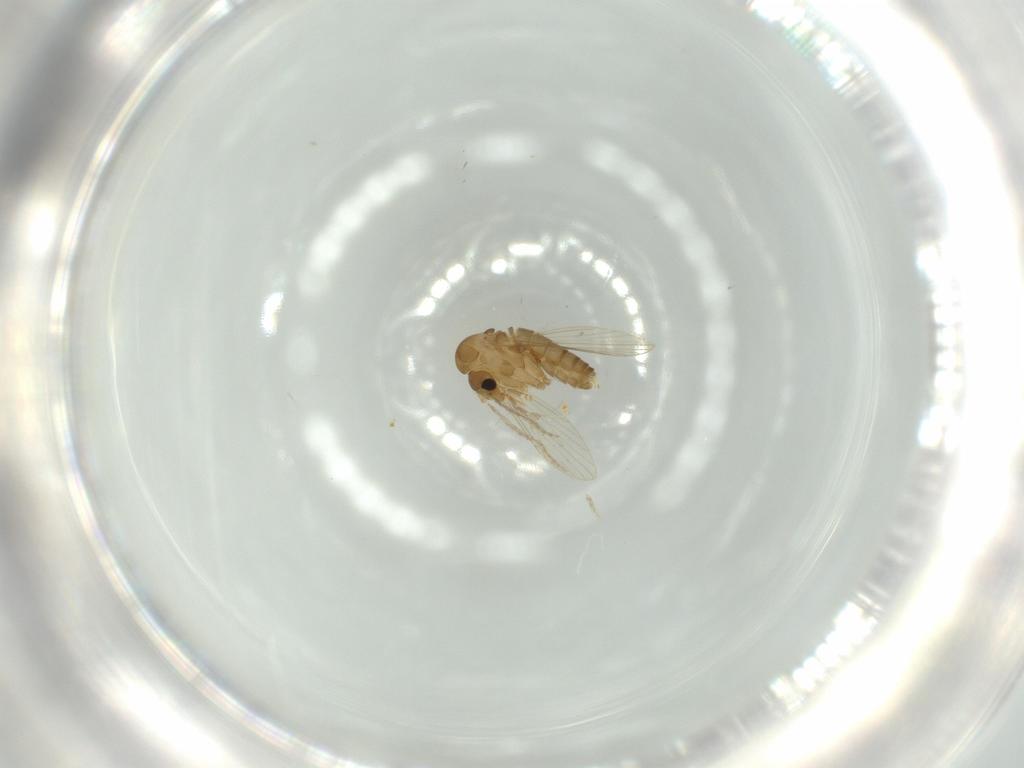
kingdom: Animalia
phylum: Arthropoda
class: Insecta
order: Diptera
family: Psychodidae
